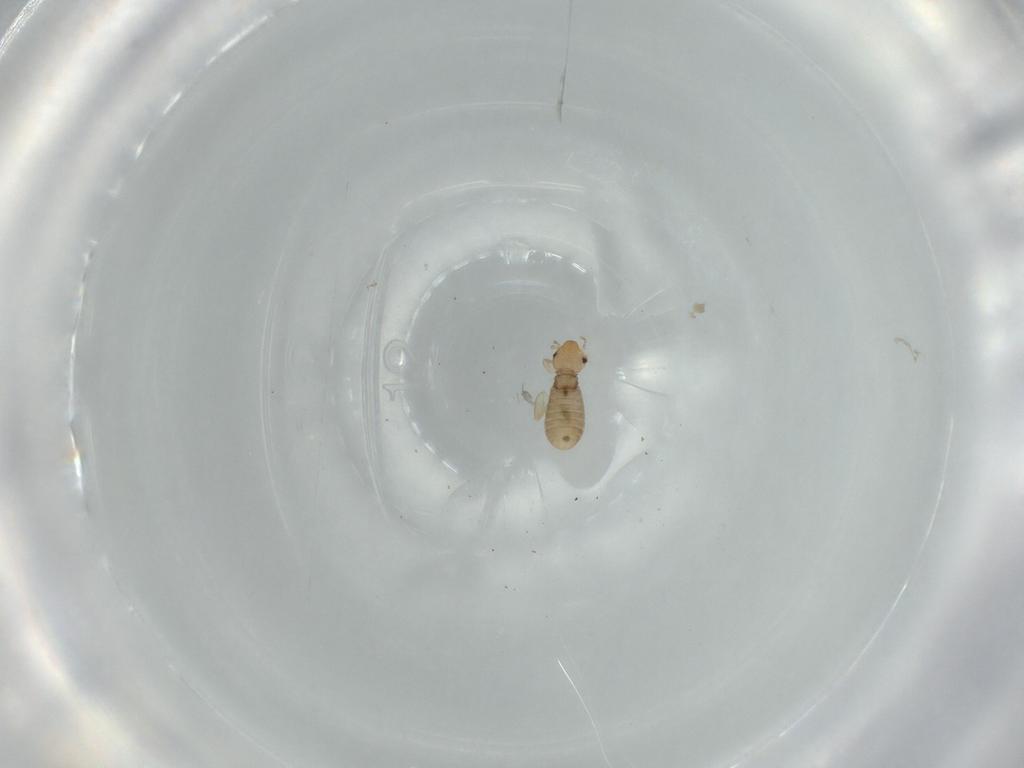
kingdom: Animalia
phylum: Arthropoda
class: Insecta
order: Psocodea
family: Liposcelididae
